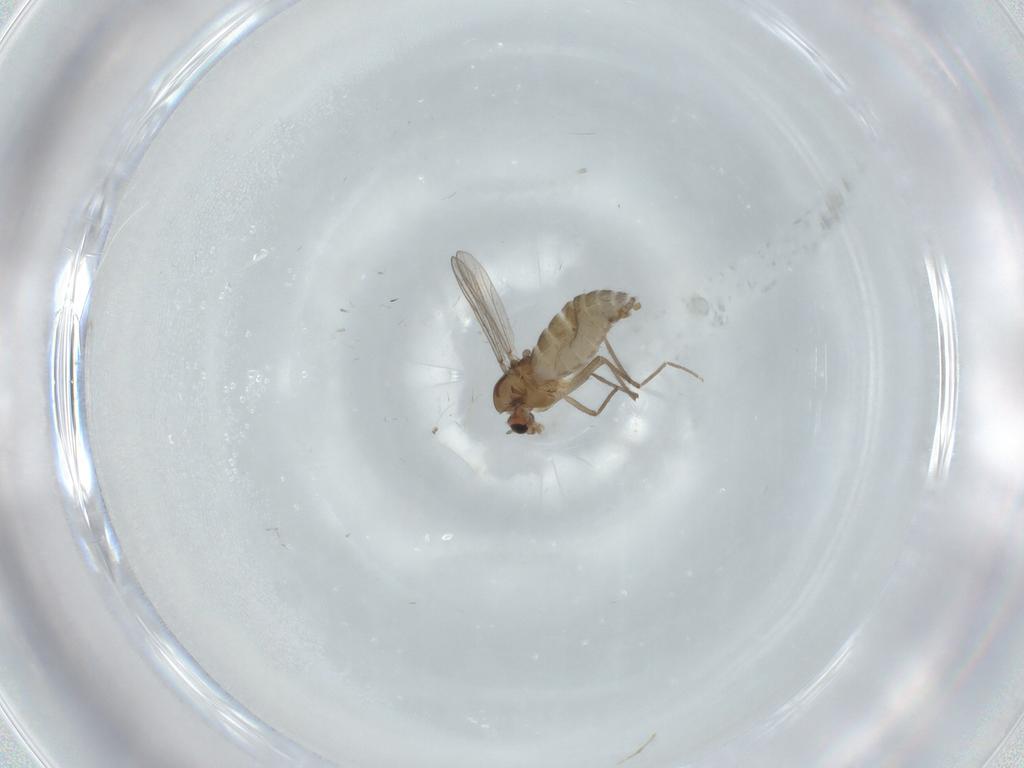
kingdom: Animalia
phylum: Arthropoda
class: Insecta
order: Diptera
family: Chironomidae
